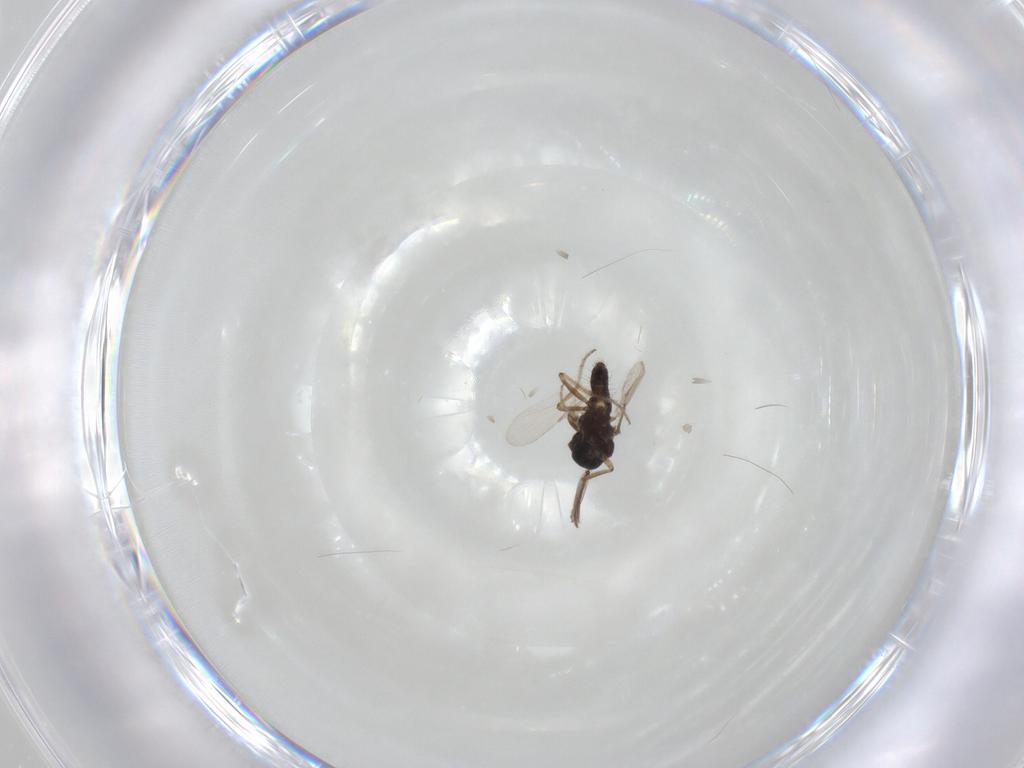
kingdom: Animalia
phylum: Arthropoda
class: Insecta
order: Diptera
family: Ceratopogonidae
